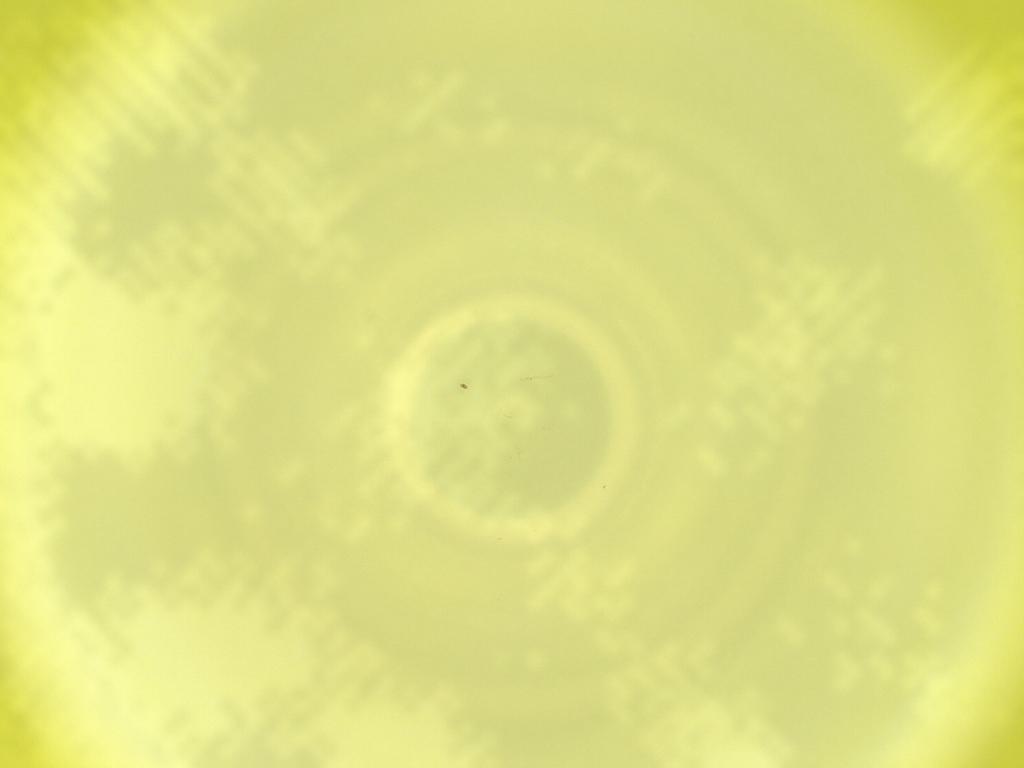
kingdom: Animalia
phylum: Arthropoda
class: Insecta
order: Diptera
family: Cecidomyiidae
